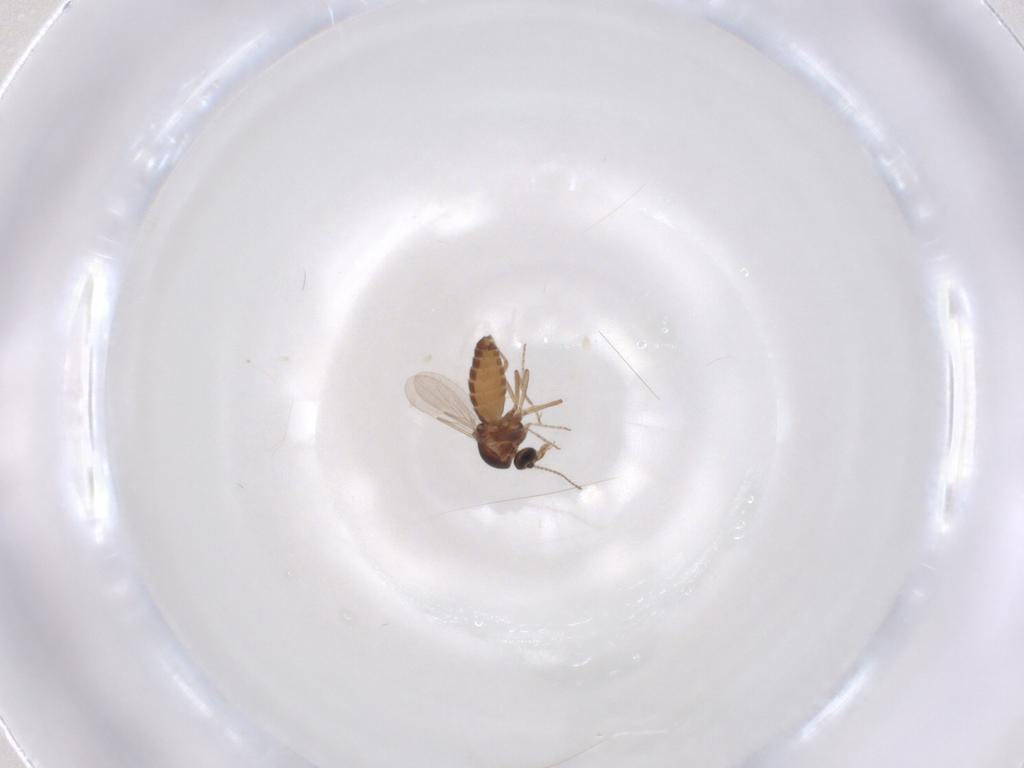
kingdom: Animalia
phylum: Arthropoda
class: Insecta
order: Diptera
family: Ceratopogonidae
